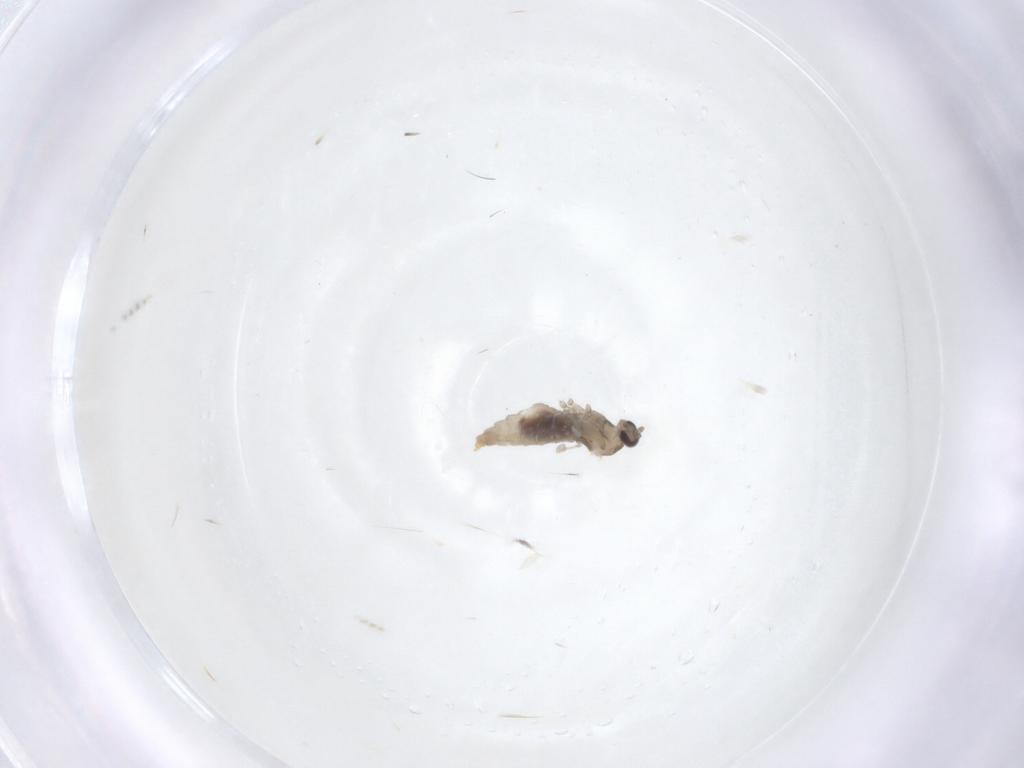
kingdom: Animalia
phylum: Arthropoda
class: Insecta
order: Diptera
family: Cecidomyiidae
